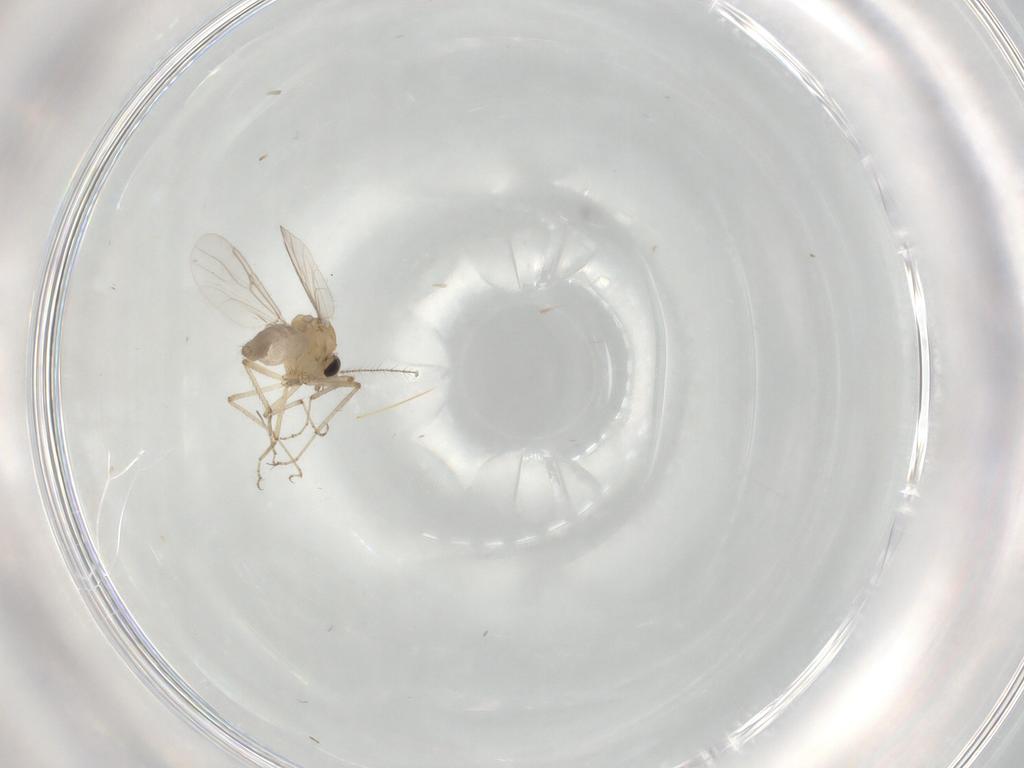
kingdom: Animalia
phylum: Arthropoda
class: Insecta
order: Diptera
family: Ceratopogonidae
